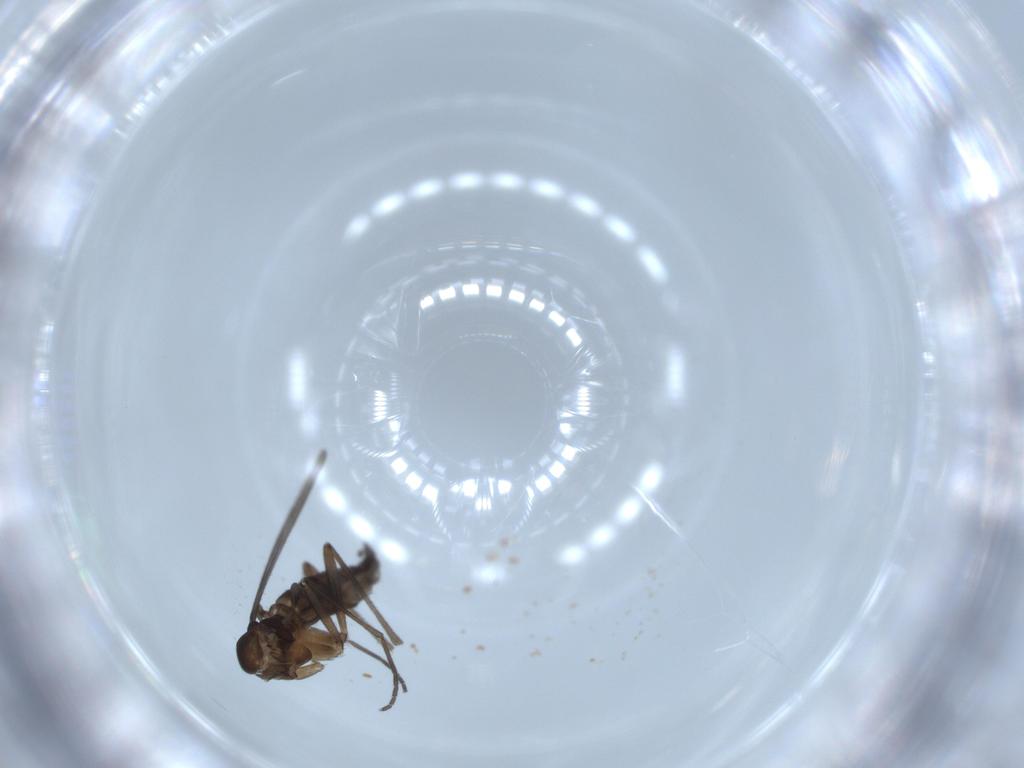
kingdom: Animalia
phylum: Arthropoda
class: Insecta
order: Diptera
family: Sciaridae
